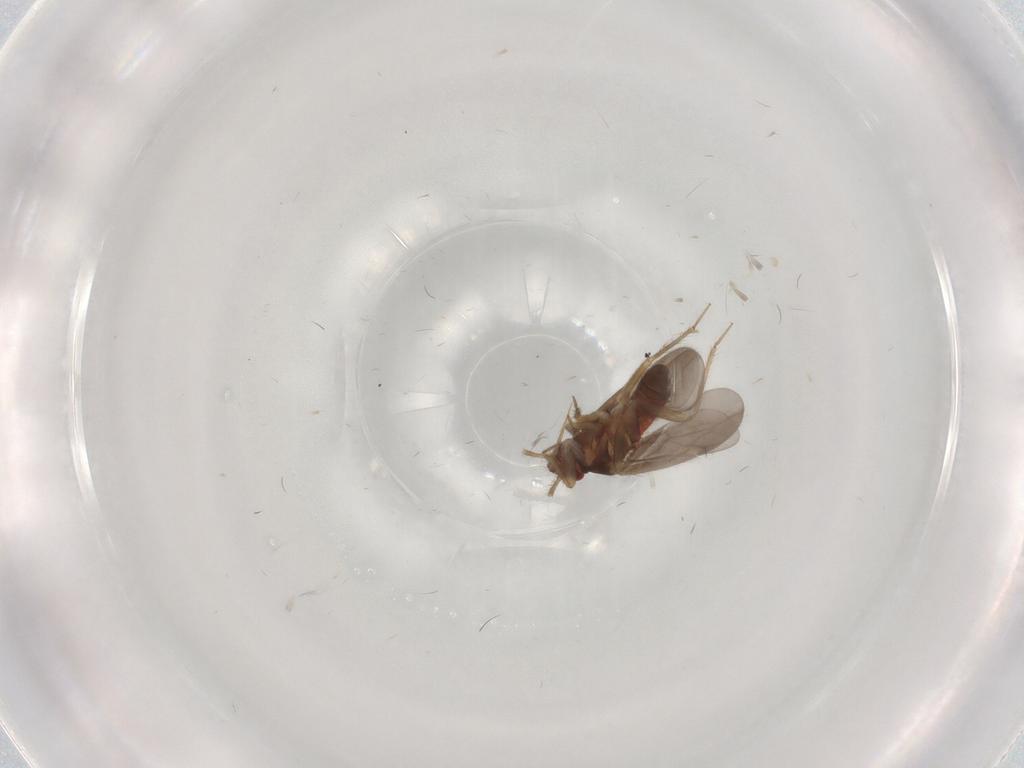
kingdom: Animalia
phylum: Arthropoda
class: Insecta
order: Hemiptera
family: Ceratocombidae
